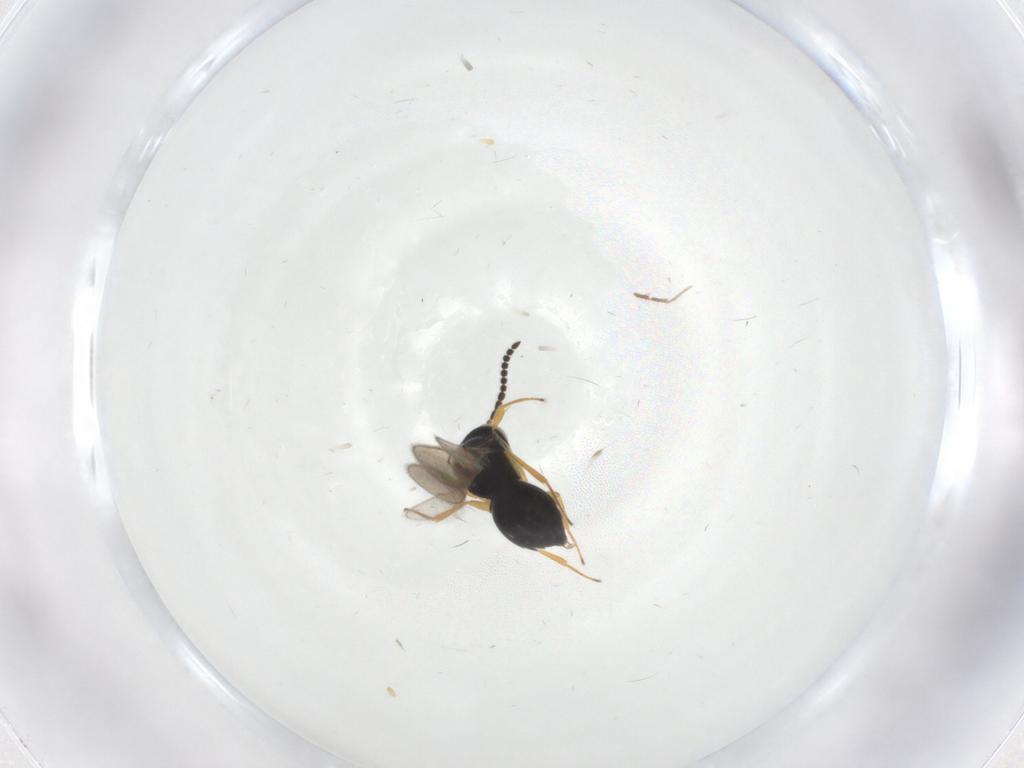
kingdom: Animalia
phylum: Arthropoda
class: Insecta
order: Hymenoptera
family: Scelionidae
